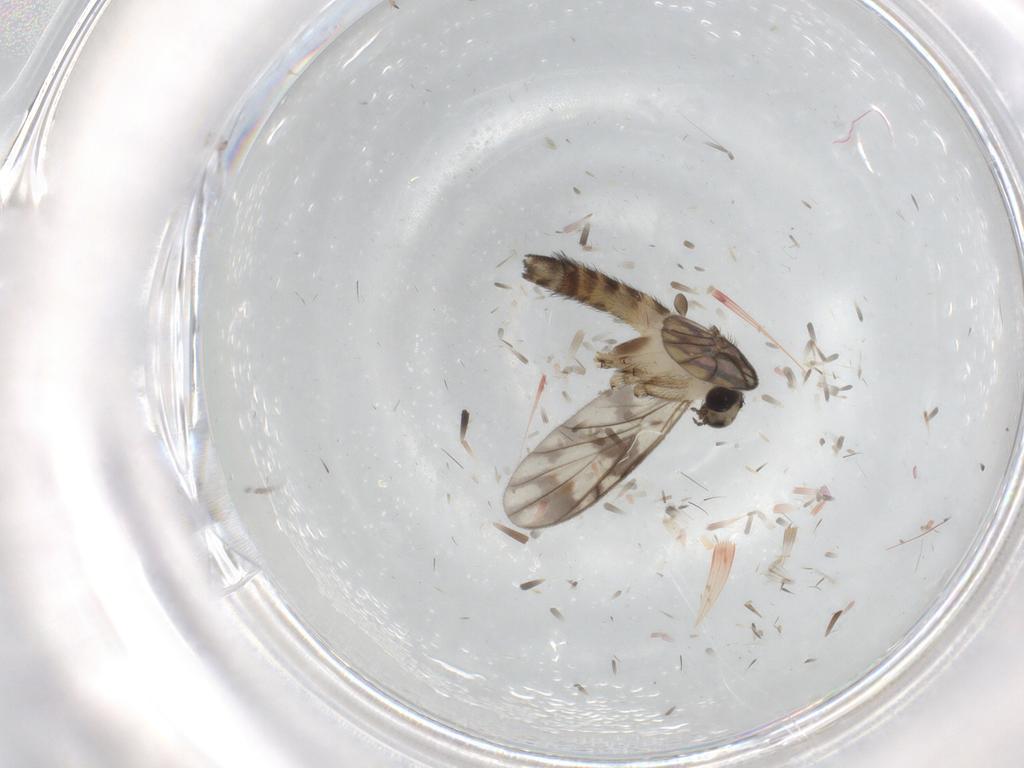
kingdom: Animalia
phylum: Arthropoda
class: Insecta
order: Diptera
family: Keroplatidae
